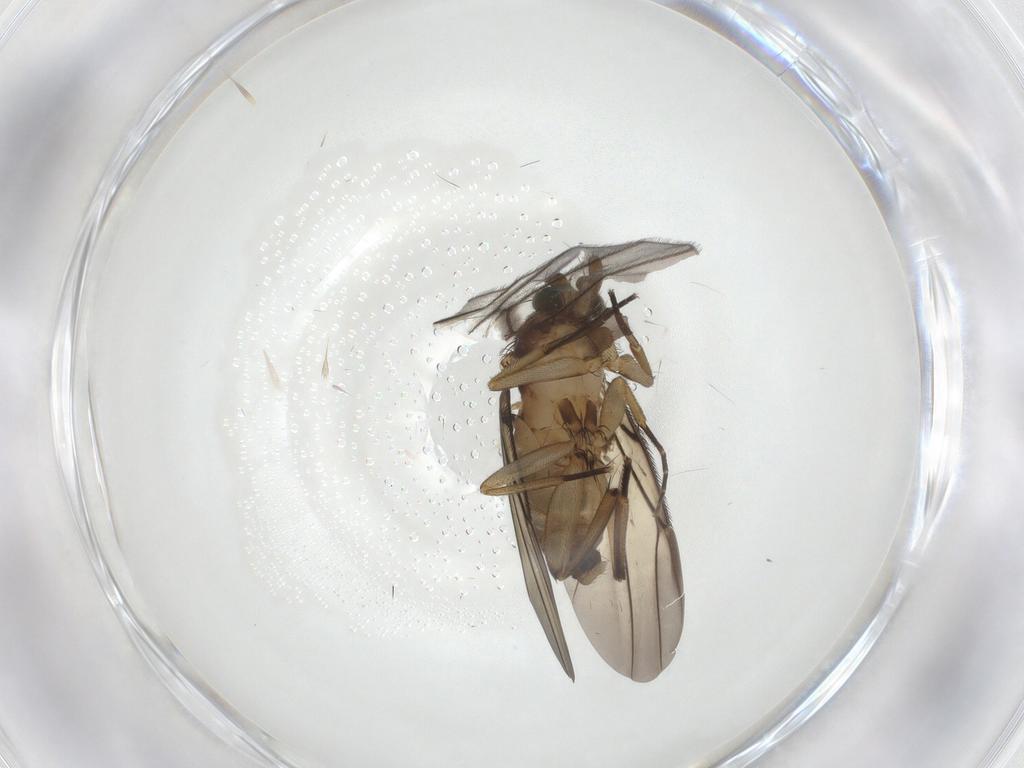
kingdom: Animalia
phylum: Arthropoda
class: Insecta
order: Diptera
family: Chironomidae
